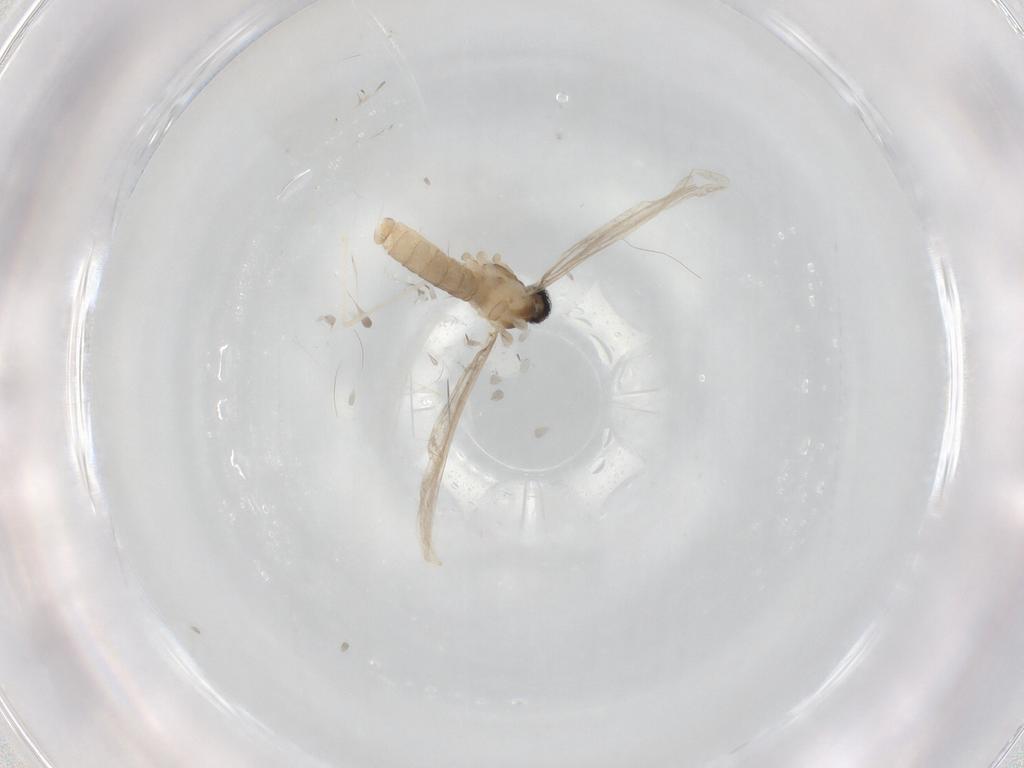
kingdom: Animalia
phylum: Arthropoda
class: Insecta
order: Diptera
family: Cecidomyiidae
